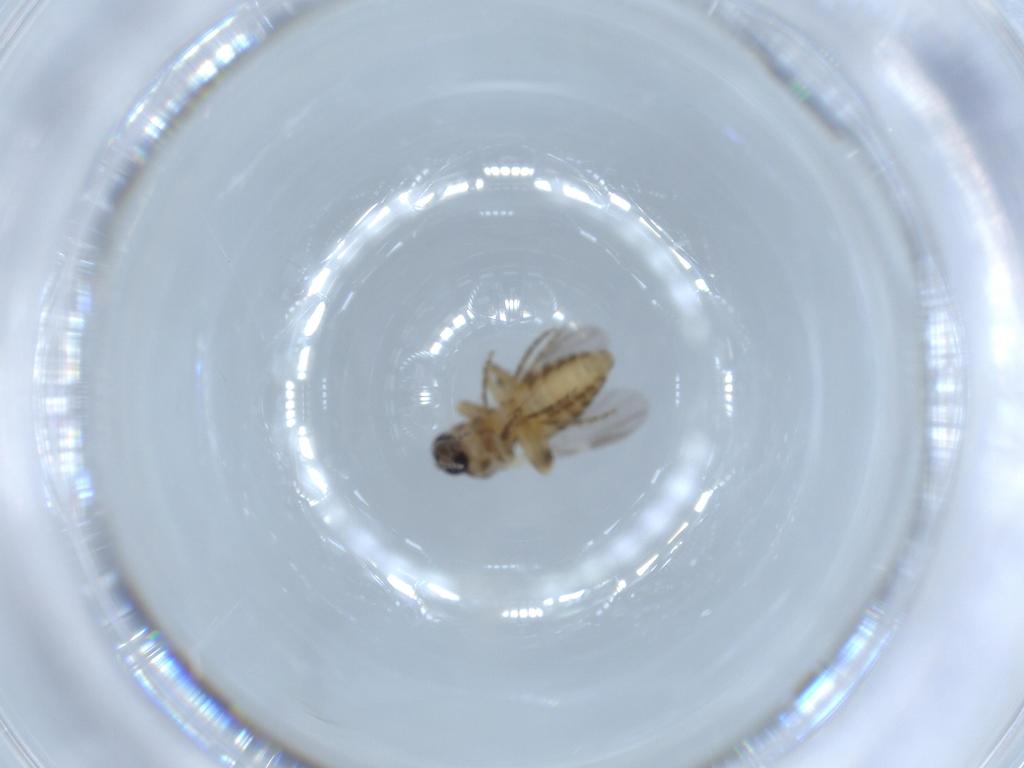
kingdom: Animalia
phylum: Arthropoda
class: Insecta
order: Diptera
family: Ceratopogonidae
